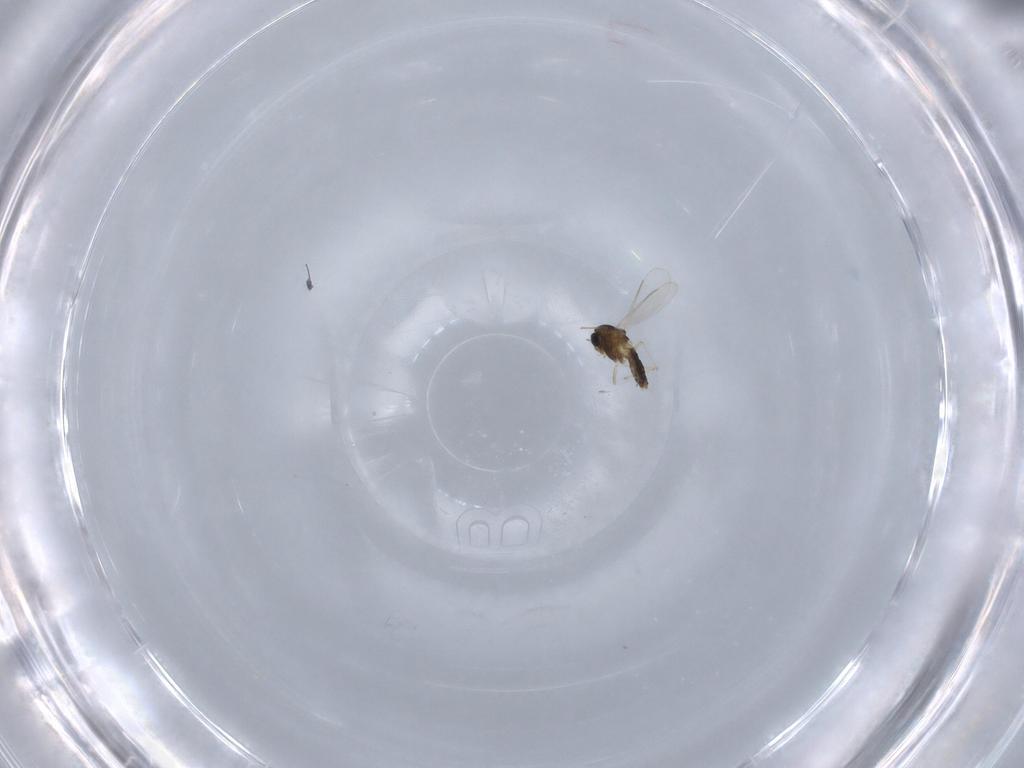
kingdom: Animalia
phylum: Arthropoda
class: Insecta
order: Diptera
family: Chironomidae
